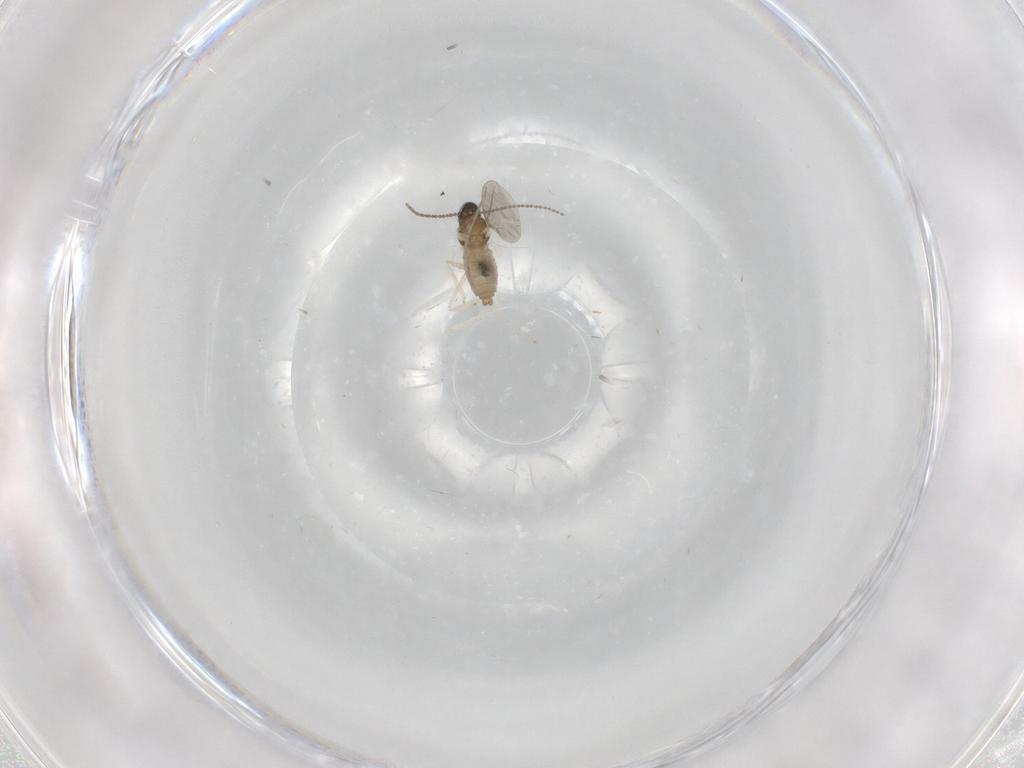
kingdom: Animalia
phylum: Arthropoda
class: Insecta
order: Diptera
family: Cecidomyiidae
